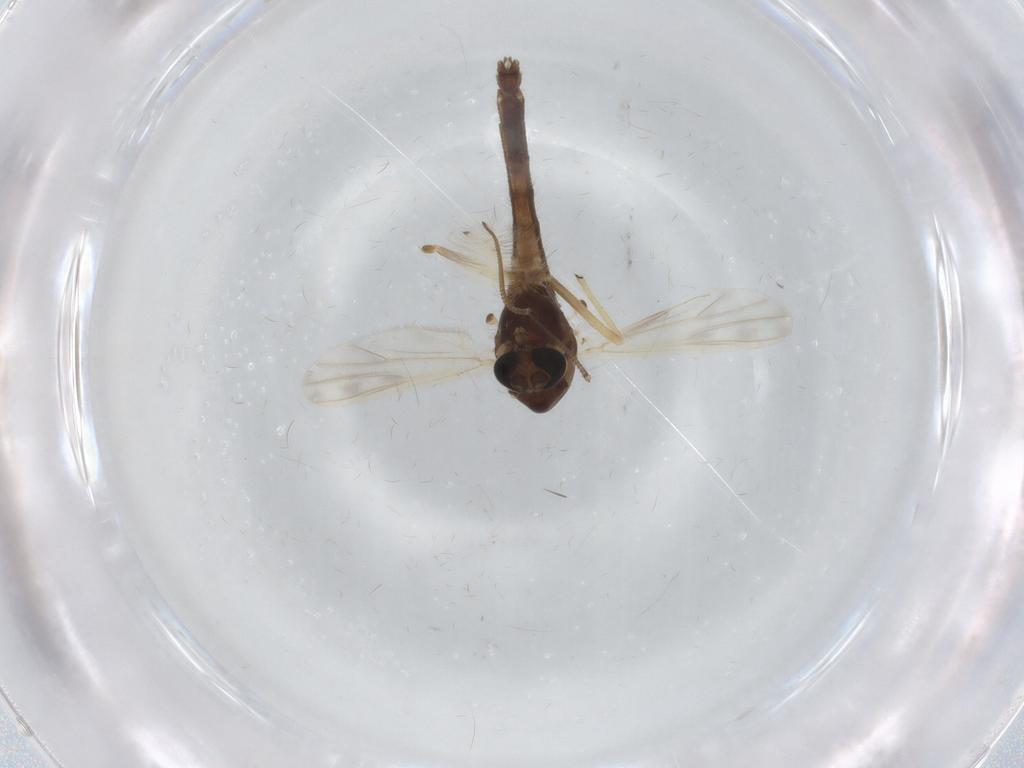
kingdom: Animalia
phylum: Arthropoda
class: Insecta
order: Diptera
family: Chironomidae
